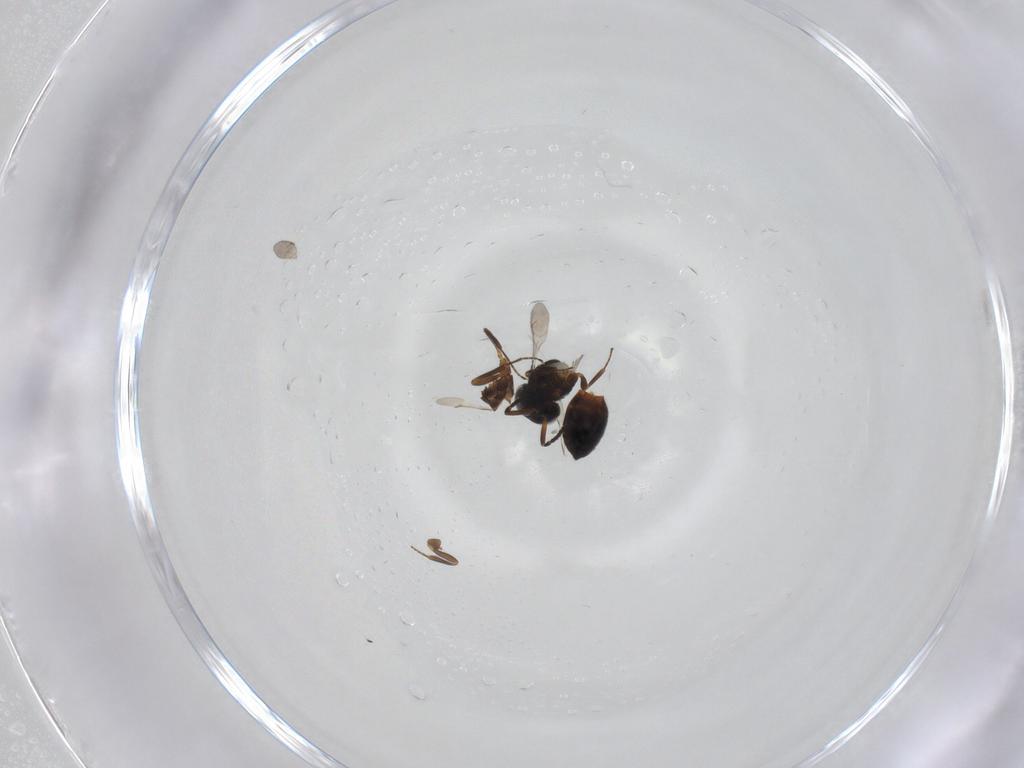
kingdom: Animalia
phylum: Arthropoda
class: Insecta
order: Hymenoptera
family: Scelionidae
